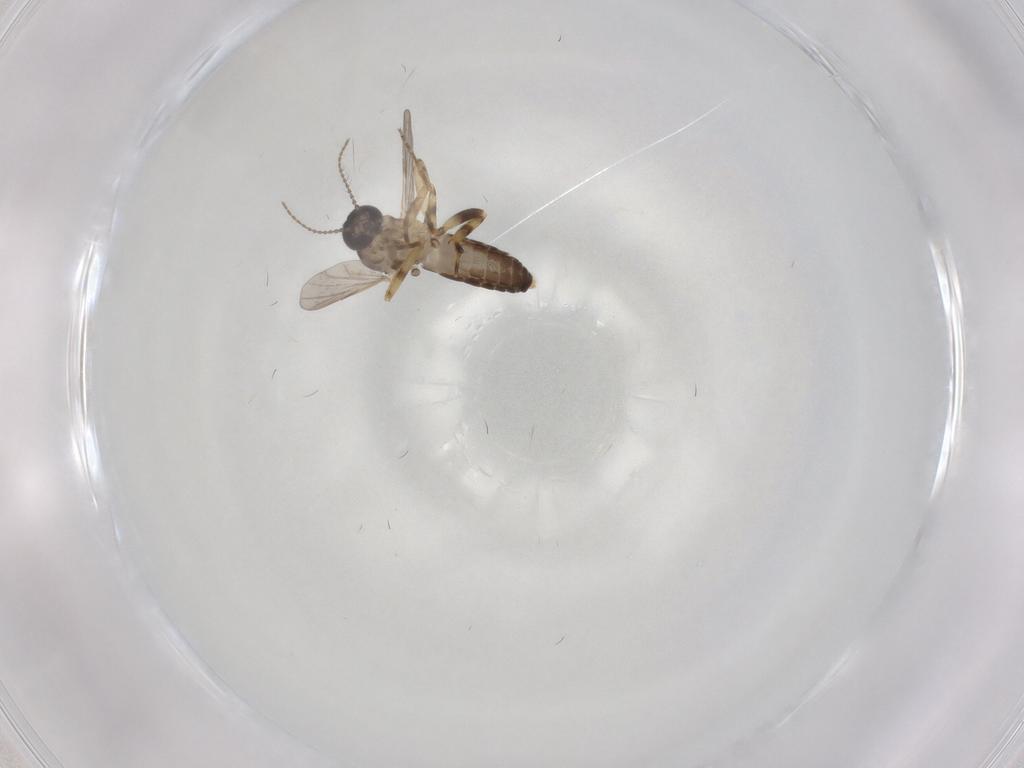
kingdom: Animalia
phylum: Arthropoda
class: Insecta
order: Diptera
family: Ceratopogonidae
